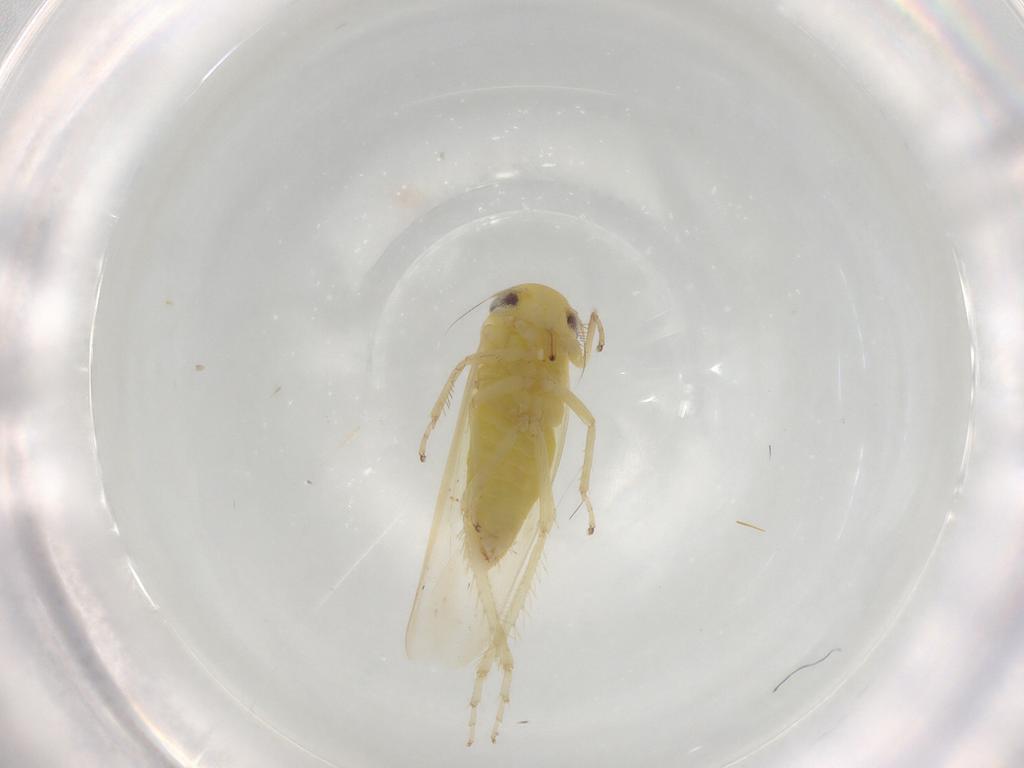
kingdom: Animalia
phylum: Arthropoda
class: Insecta
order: Hemiptera
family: Cicadellidae
